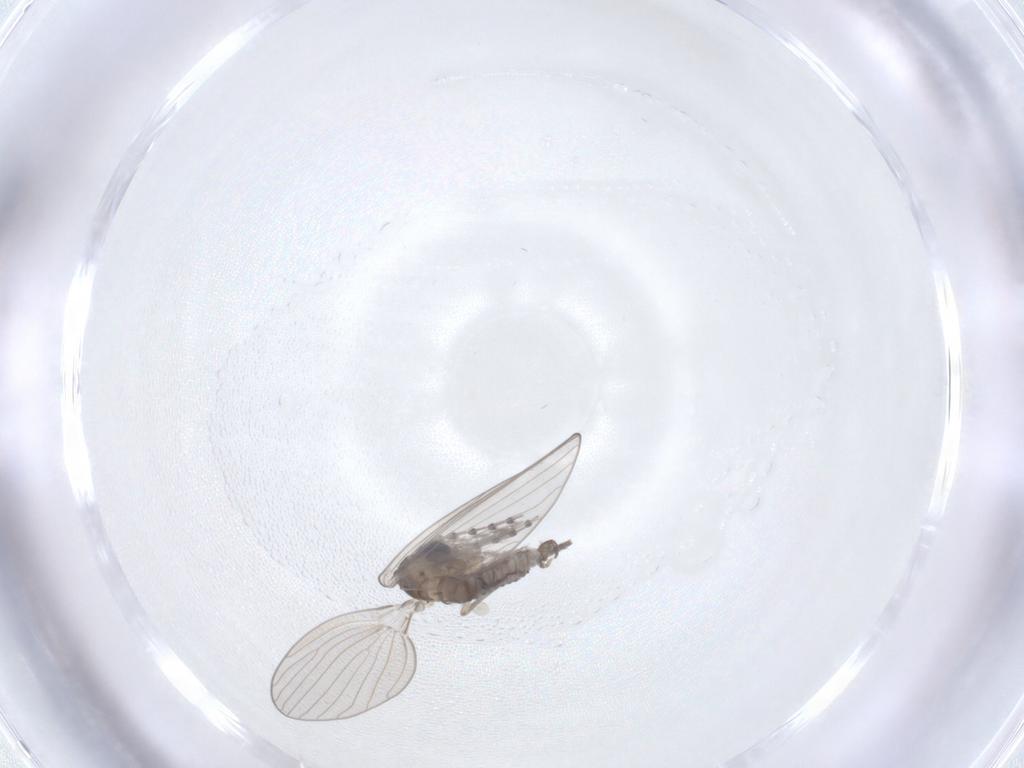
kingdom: Animalia
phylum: Arthropoda
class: Insecta
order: Diptera
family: Psychodidae
